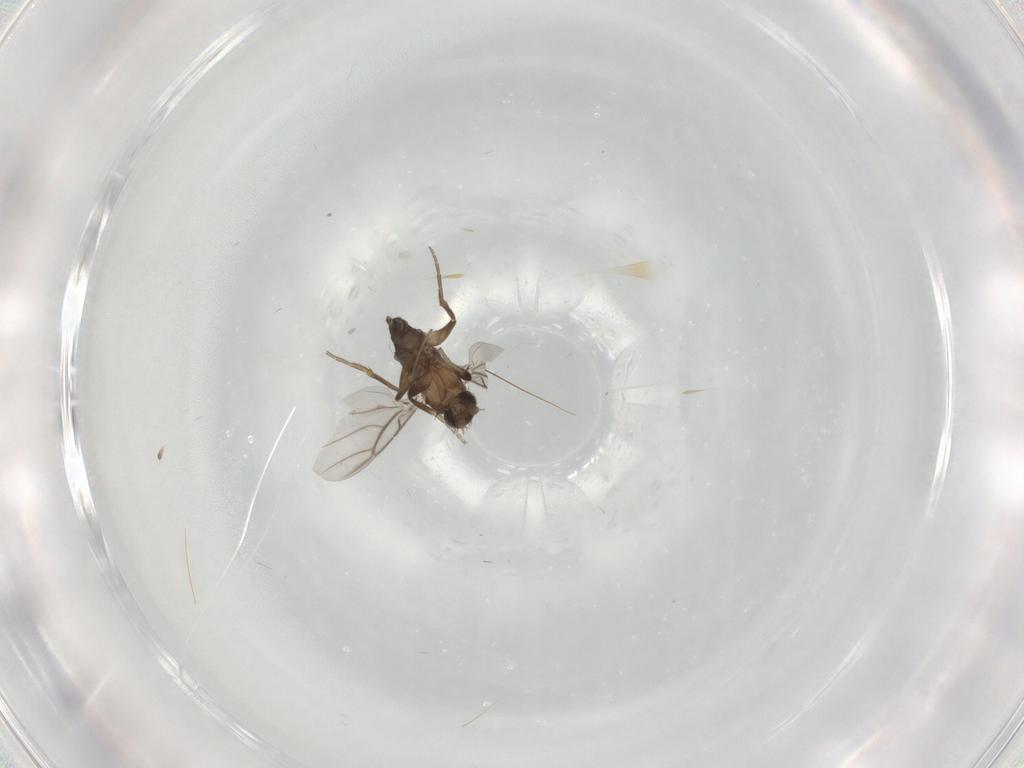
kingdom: Animalia
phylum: Arthropoda
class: Insecta
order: Diptera
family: Phoridae
